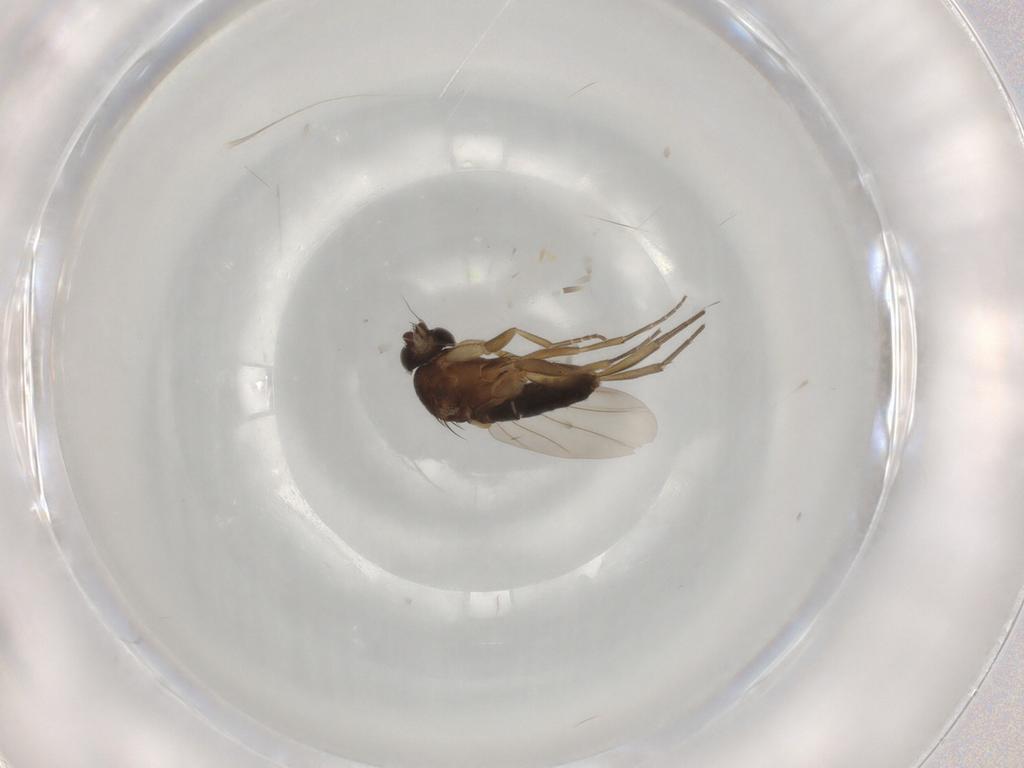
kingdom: Animalia
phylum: Arthropoda
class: Insecta
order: Diptera
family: Phoridae
